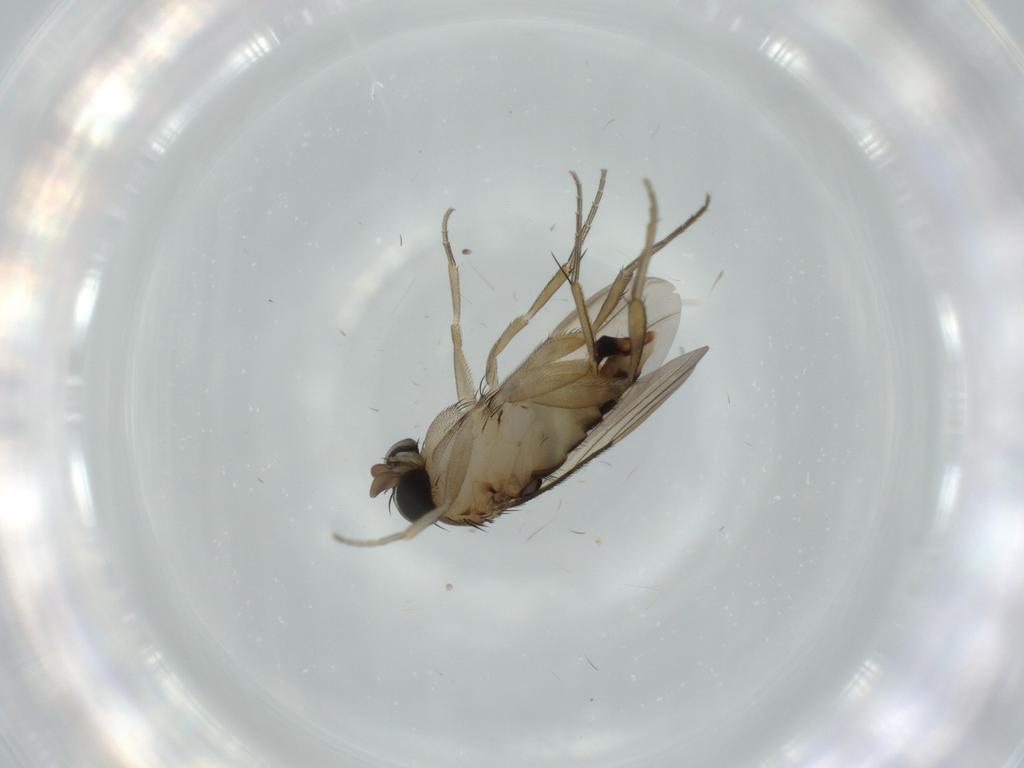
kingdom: Animalia
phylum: Arthropoda
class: Insecta
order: Diptera
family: Phoridae
